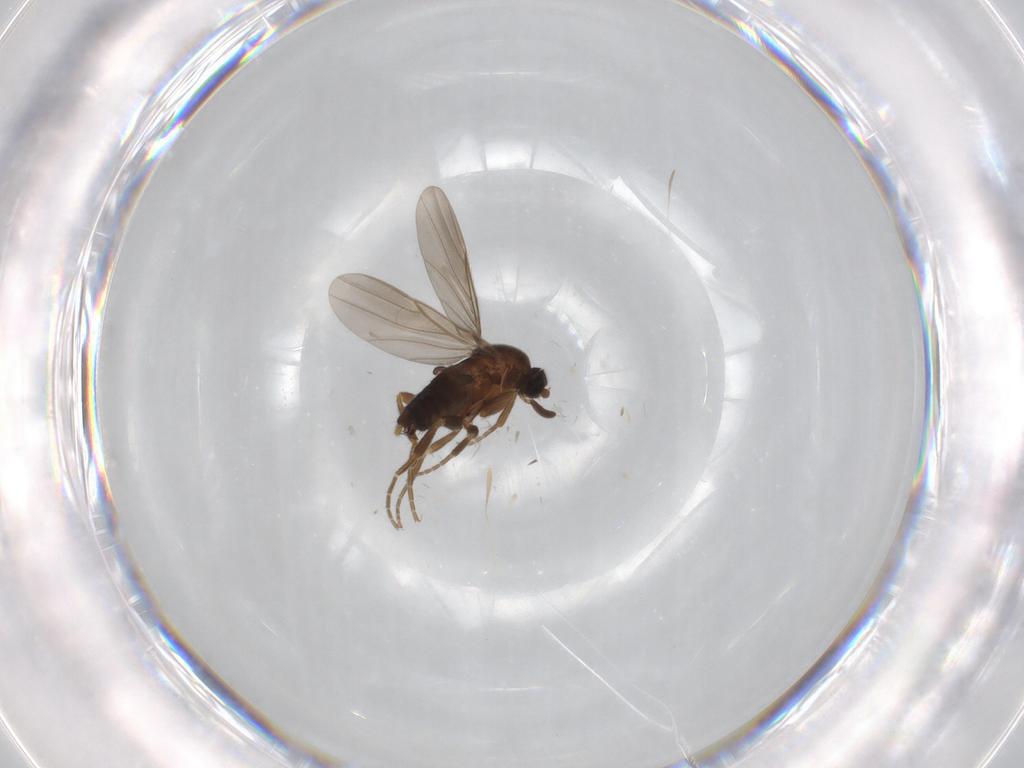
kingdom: Animalia
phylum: Arthropoda
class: Insecta
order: Diptera
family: Phoridae
